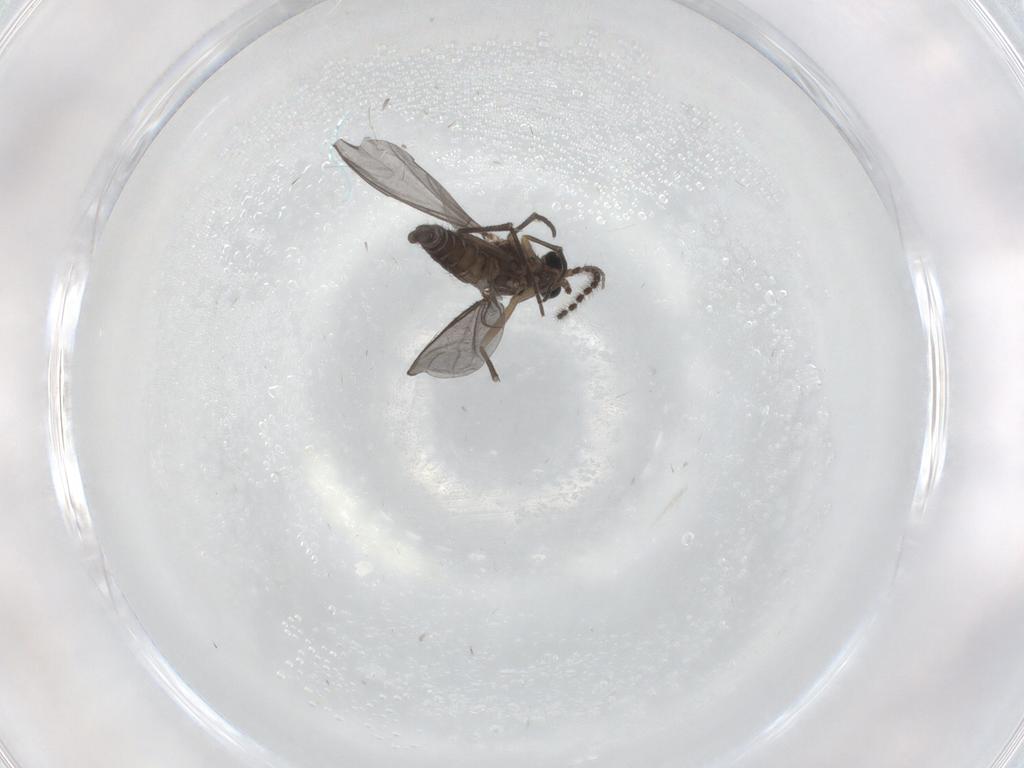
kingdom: Animalia
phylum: Arthropoda
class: Insecta
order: Diptera
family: Sciaridae
